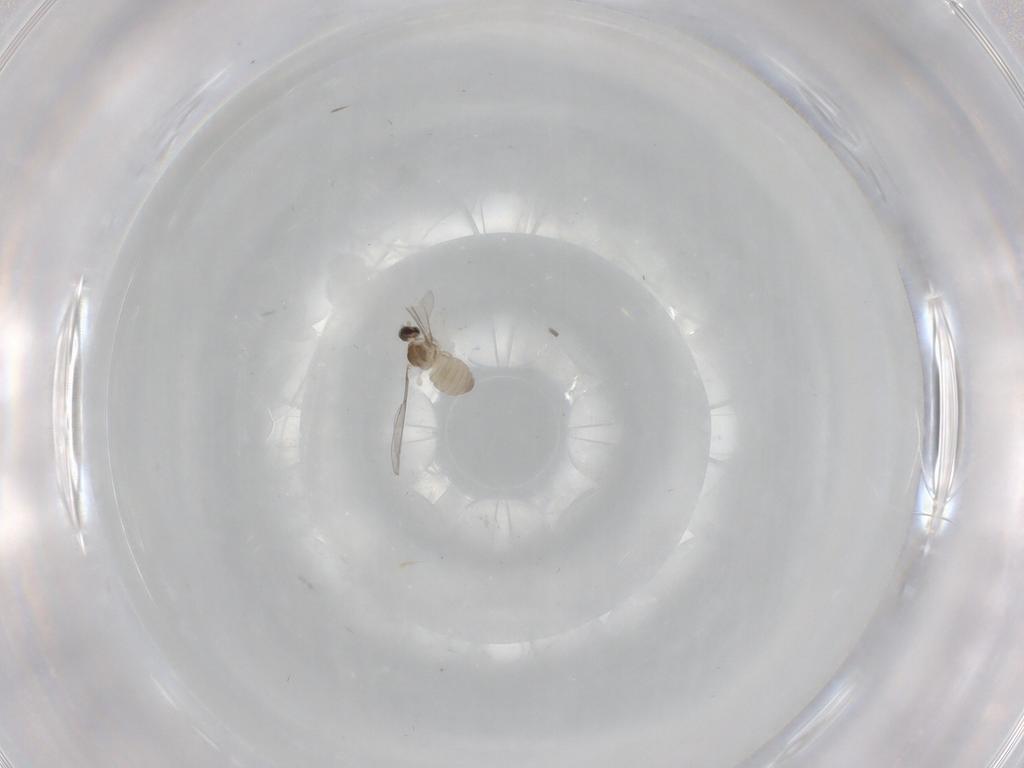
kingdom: Animalia
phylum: Arthropoda
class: Insecta
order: Diptera
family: Cecidomyiidae
